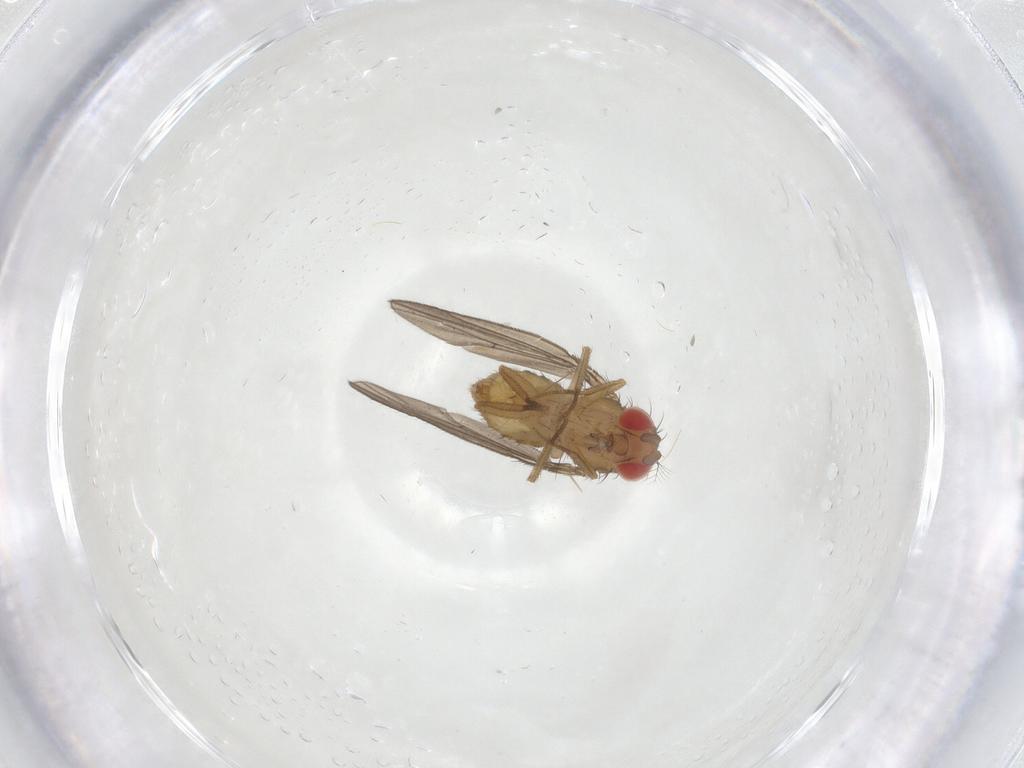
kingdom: Animalia
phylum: Arthropoda
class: Insecta
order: Diptera
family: Drosophilidae
